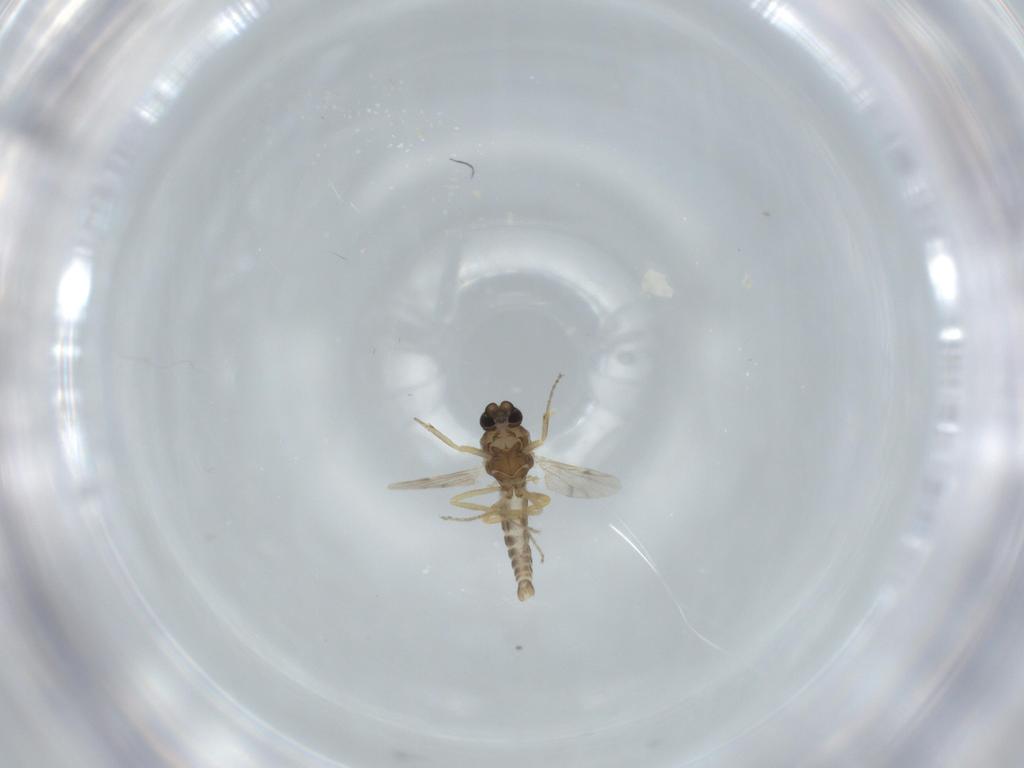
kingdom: Animalia
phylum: Arthropoda
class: Insecta
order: Diptera
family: Ceratopogonidae
